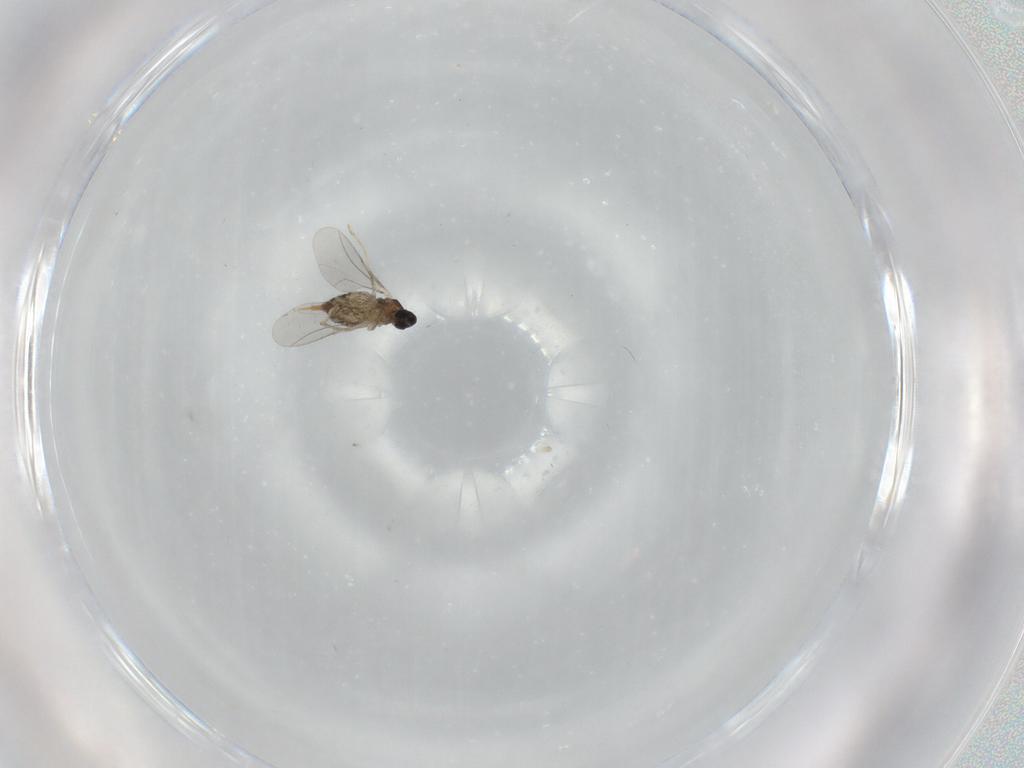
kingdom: Animalia
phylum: Arthropoda
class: Insecta
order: Diptera
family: Cecidomyiidae
